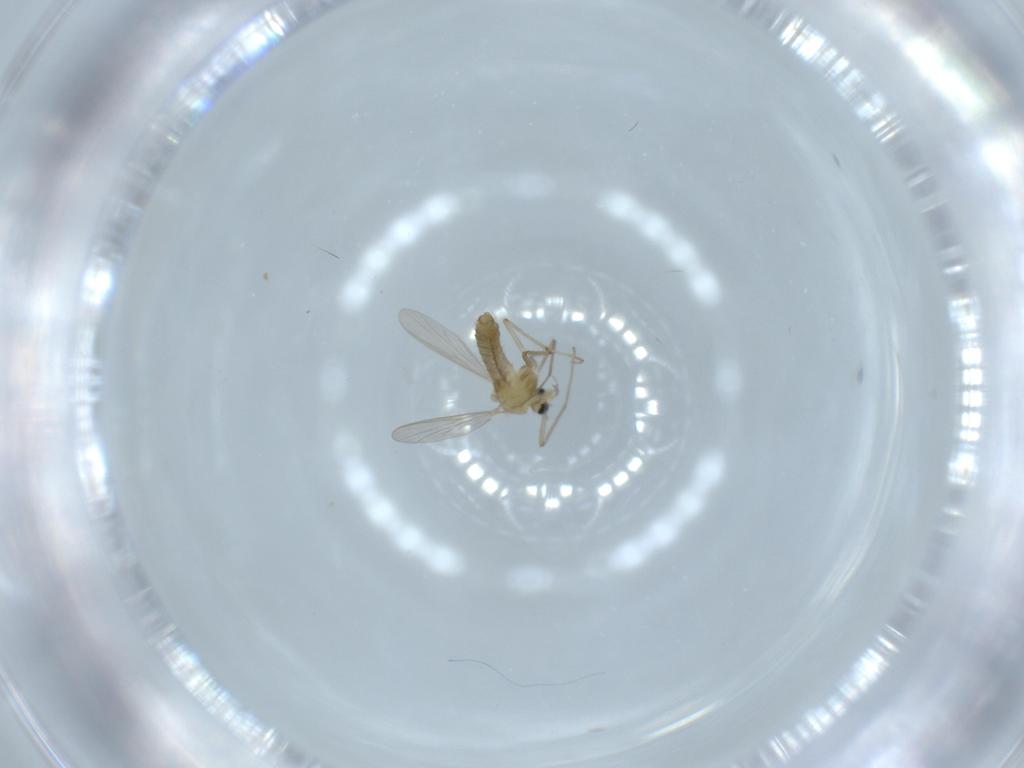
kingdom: Animalia
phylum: Arthropoda
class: Insecta
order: Diptera
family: Chironomidae
